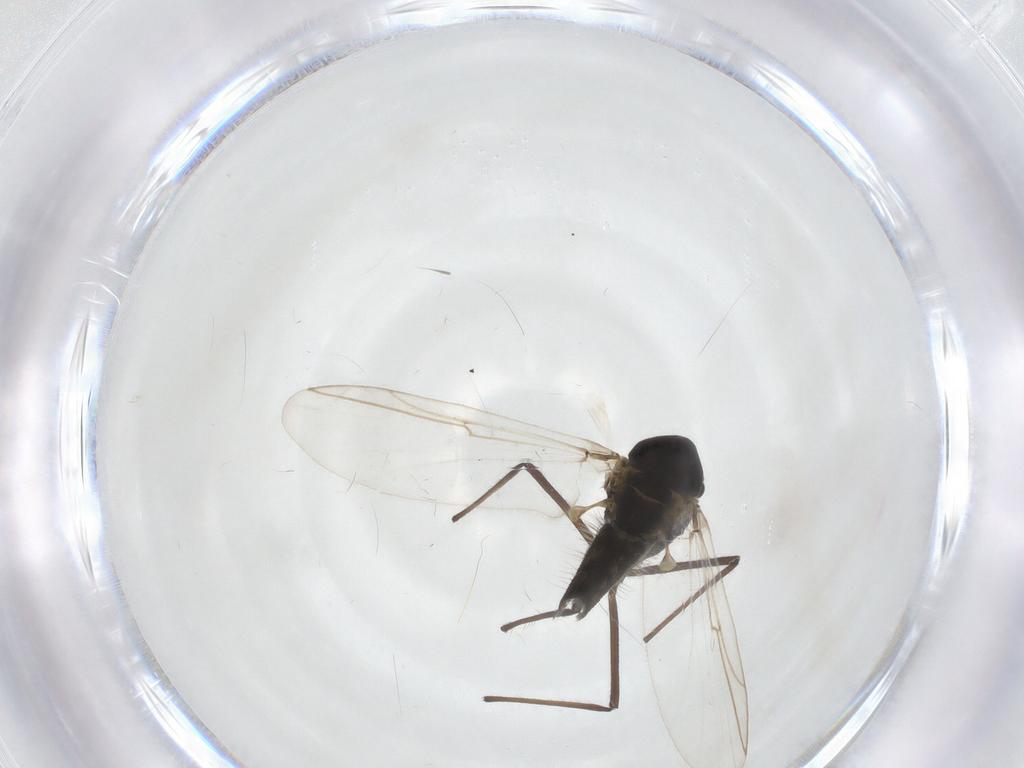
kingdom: Animalia
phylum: Arthropoda
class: Insecta
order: Diptera
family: Chironomidae
